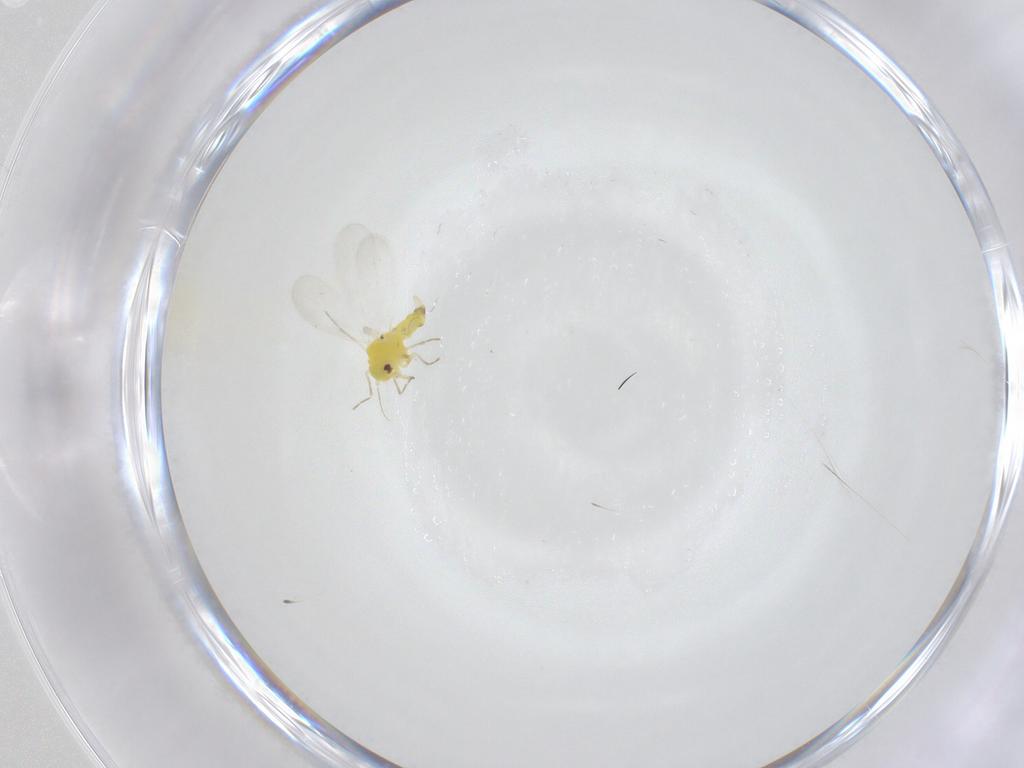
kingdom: Animalia
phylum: Arthropoda
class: Insecta
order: Hemiptera
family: Aleyrodidae
